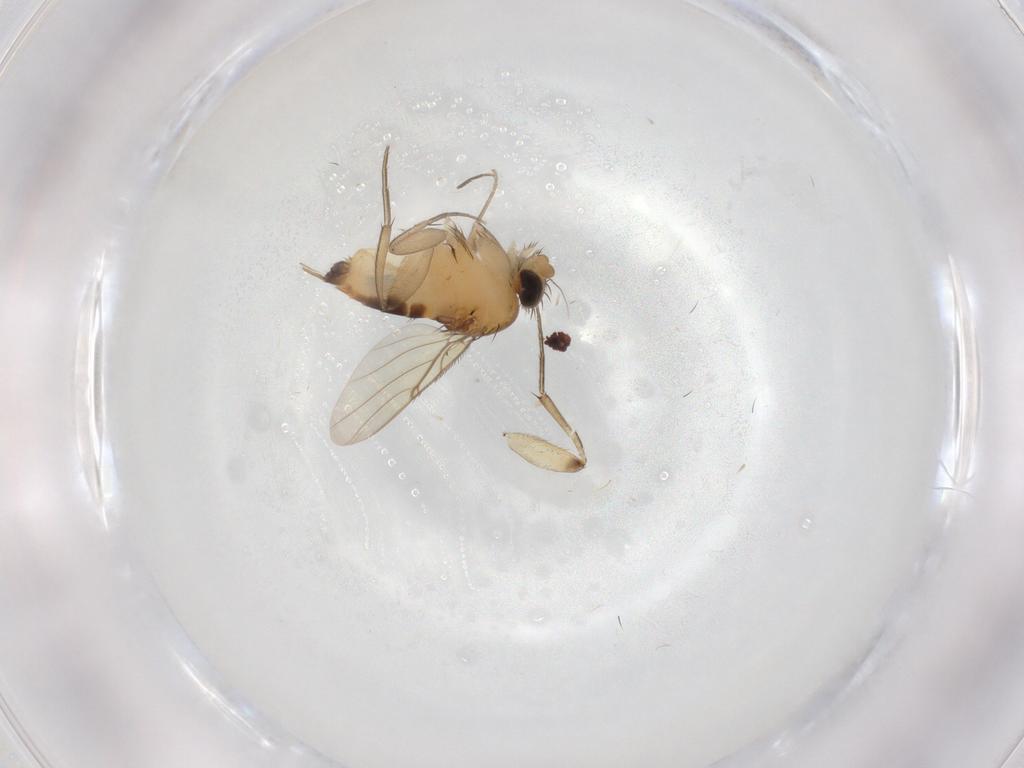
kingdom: Animalia
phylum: Arthropoda
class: Insecta
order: Diptera
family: Phoridae
